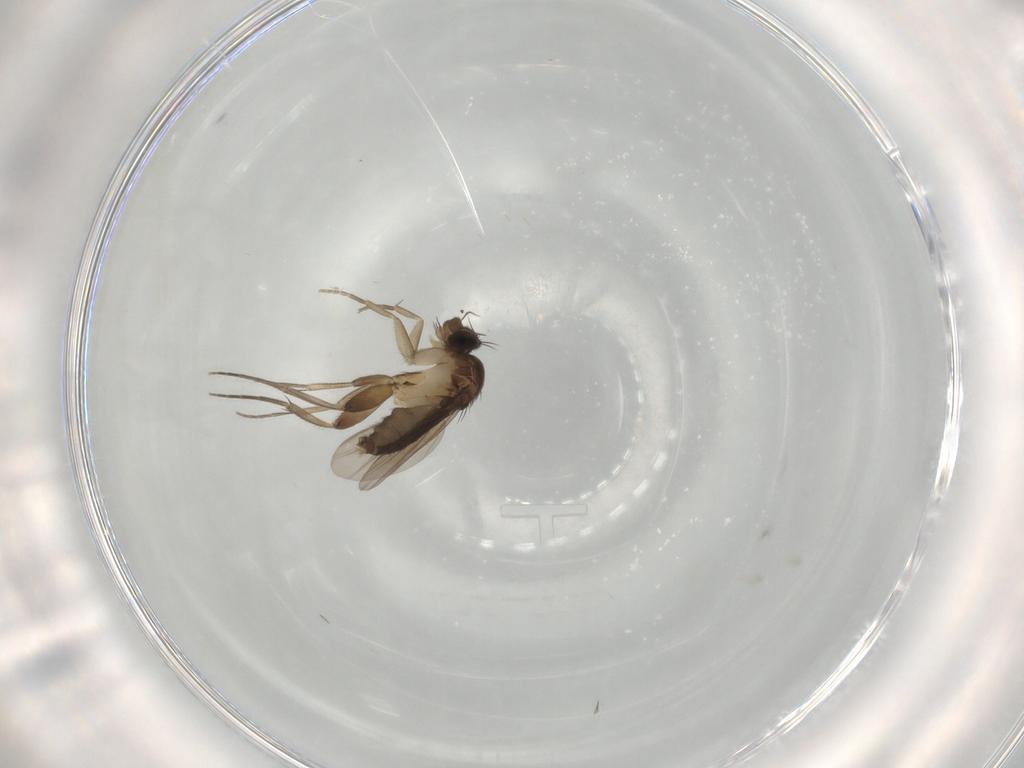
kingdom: Animalia
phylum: Arthropoda
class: Insecta
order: Diptera
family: Phoridae
